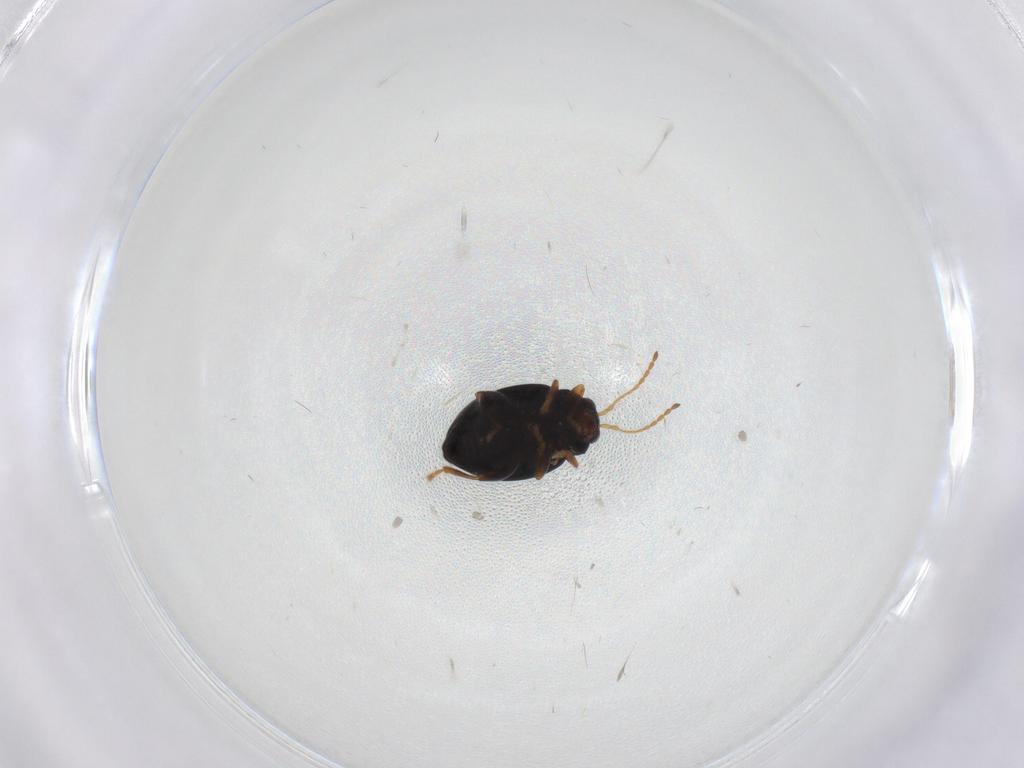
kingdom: Animalia
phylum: Arthropoda
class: Insecta
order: Coleoptera
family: Chrysomelidae
